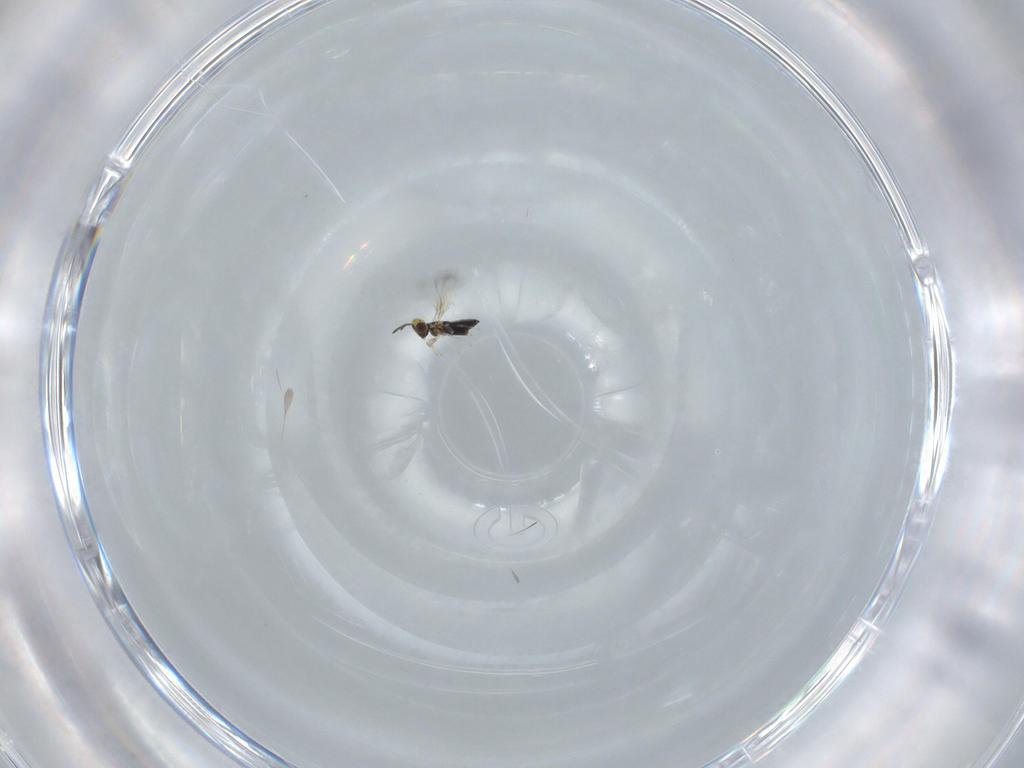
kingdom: Animalia
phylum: Arthropoda
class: Insecta
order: Hymenoptera
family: Signiphoridae
